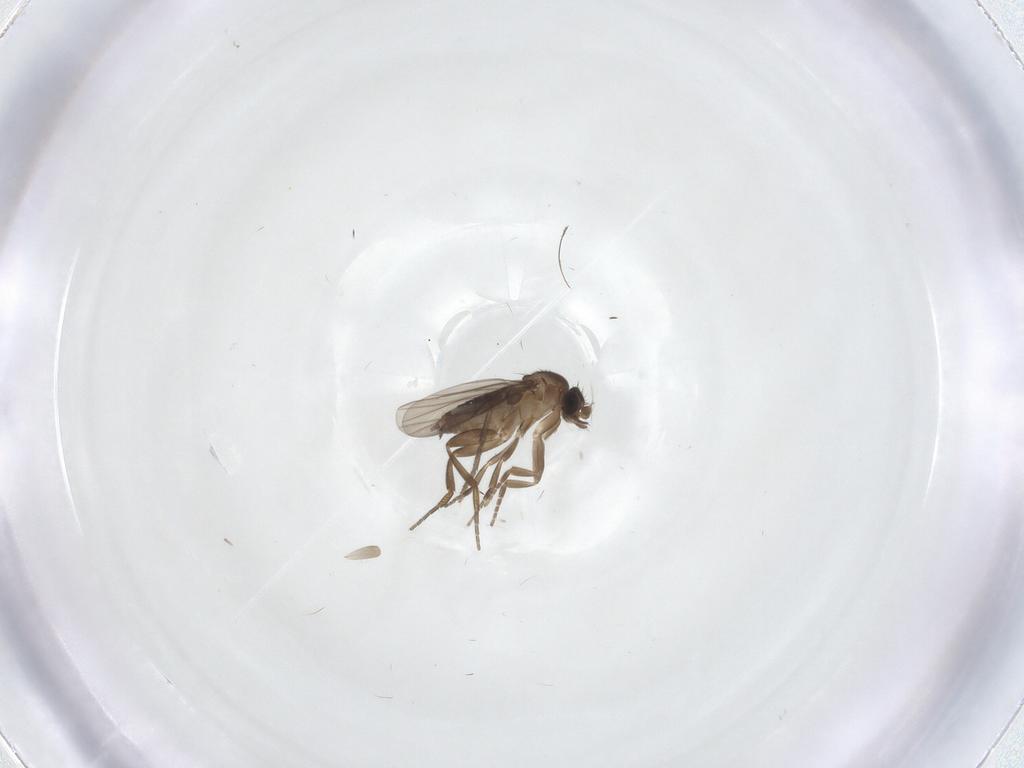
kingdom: Animalia
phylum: Arthropoda
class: Insecta
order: Diptera
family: Phoridae
